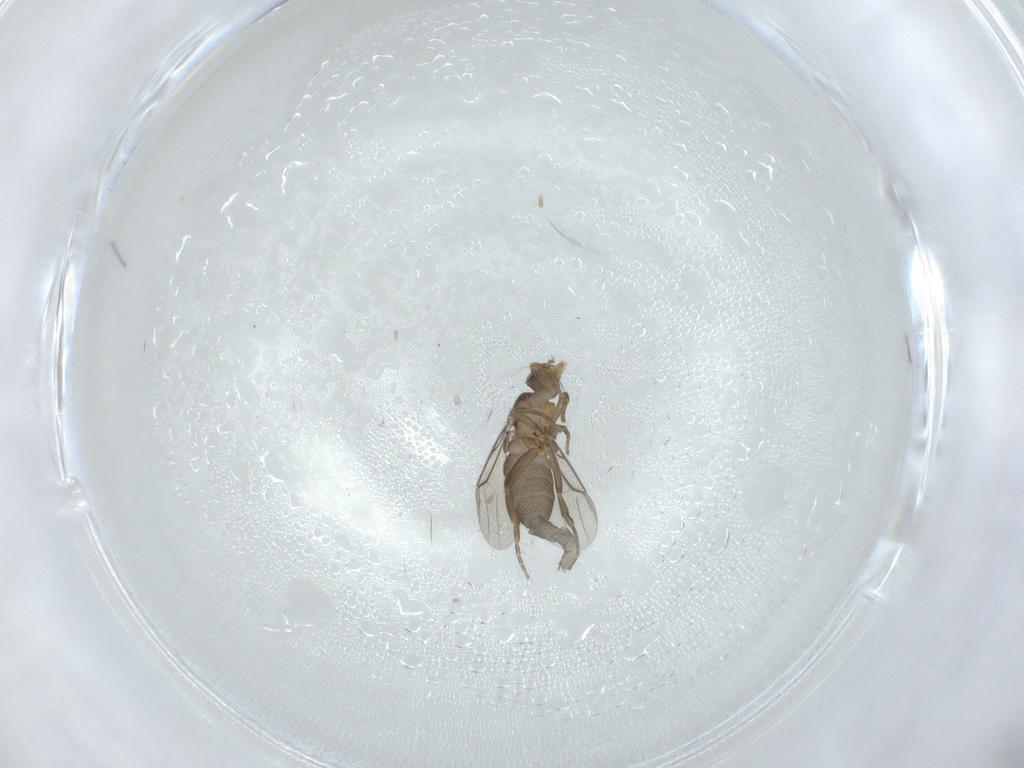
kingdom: Animalia
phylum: Arthropoda
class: Insecta
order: Diptera
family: Phoridae
